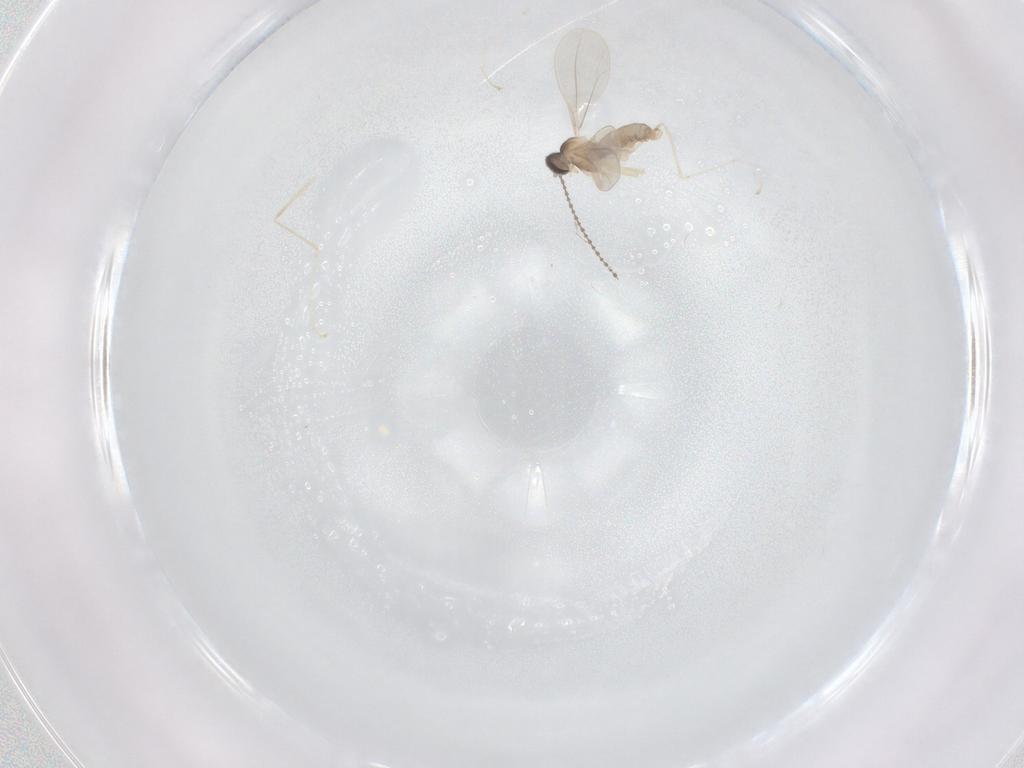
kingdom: Animalia
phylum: Arthropoda
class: Insecta
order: Diptera
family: Cecidomyiidae
